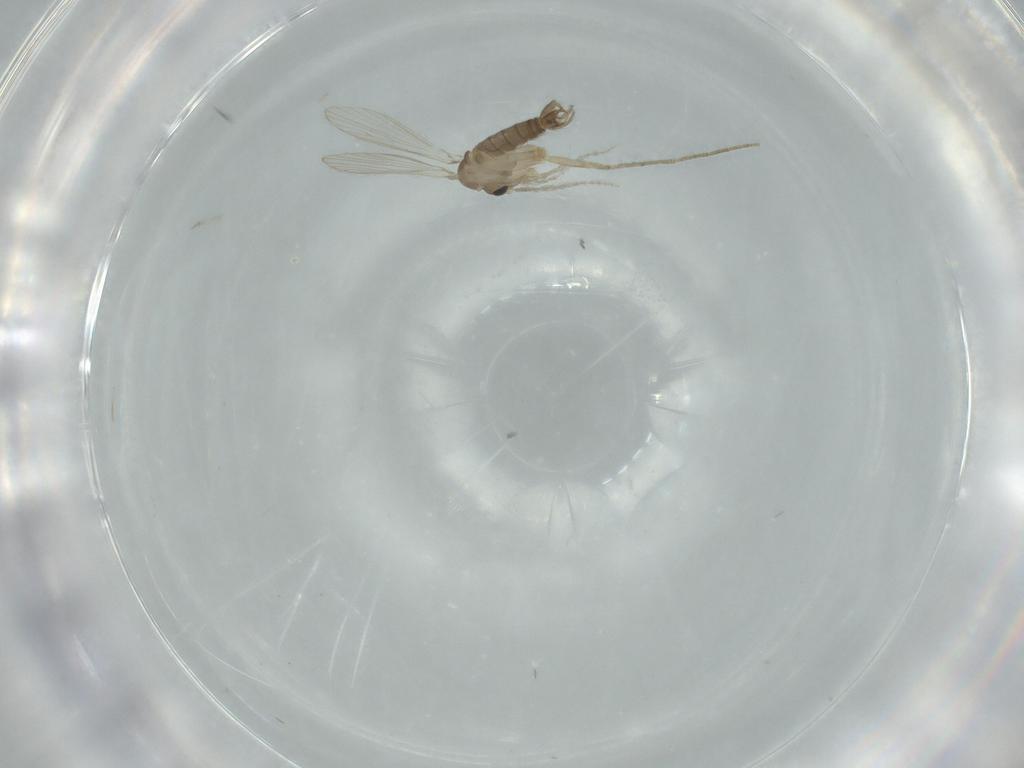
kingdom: Animalia
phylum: Arthropoda
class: Insecta
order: Diptera
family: Psychodidae
